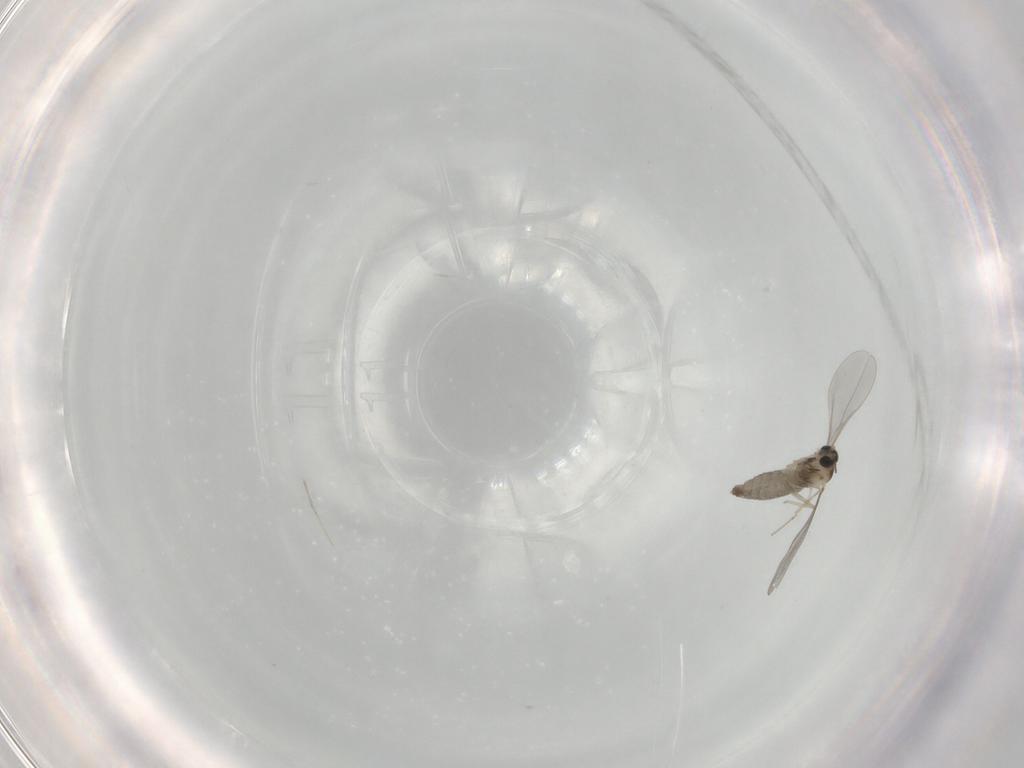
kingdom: Animalia
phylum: Arthropoda
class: Insecta
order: Diptera
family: Cecidomyiidae
